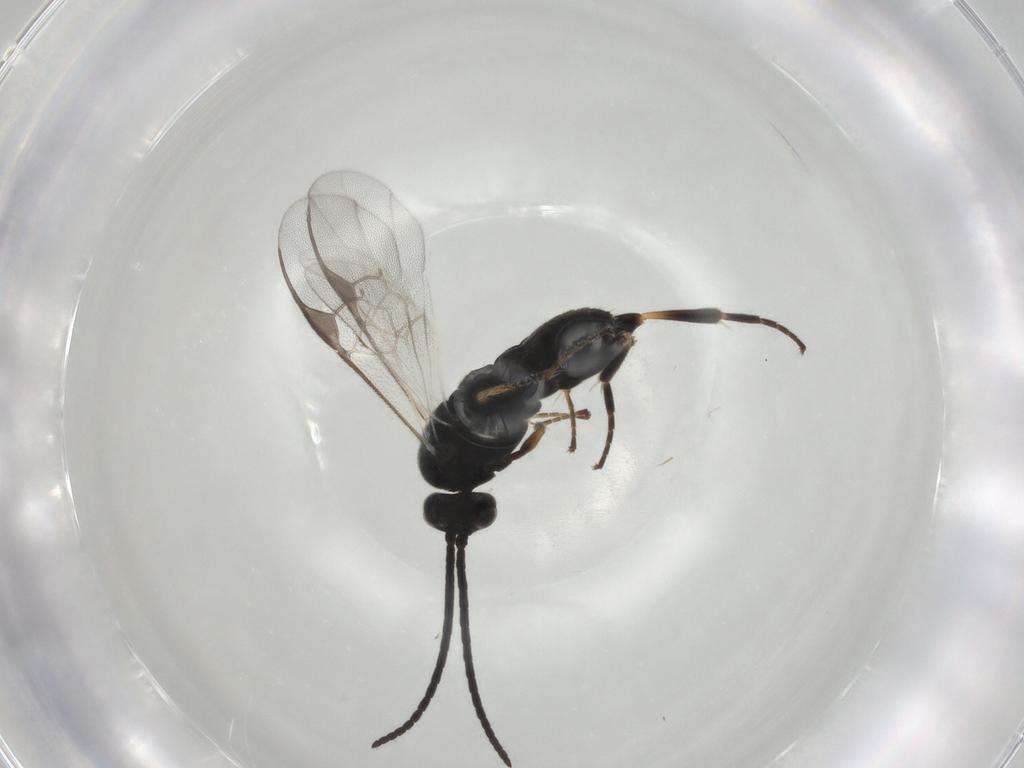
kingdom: Animalia
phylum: Arthropoda
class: Insecta
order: Hymenoptera
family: Braconidae
